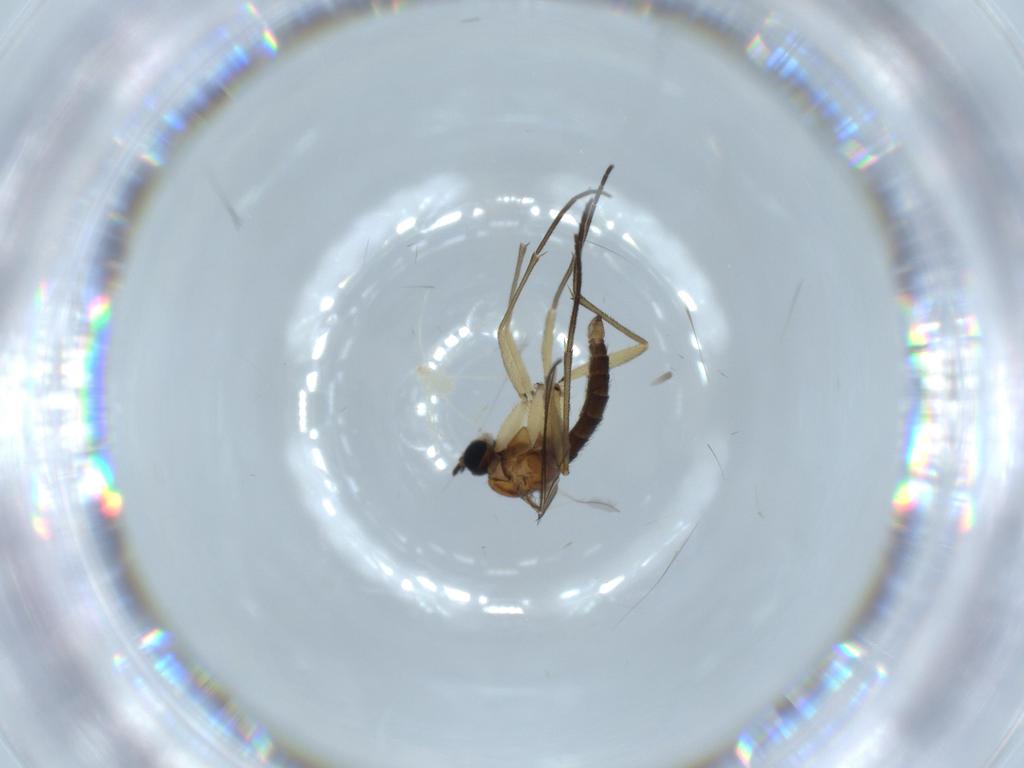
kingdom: Animalia
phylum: Arthropoda
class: Insecta
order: Diptera
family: Sciaridae
